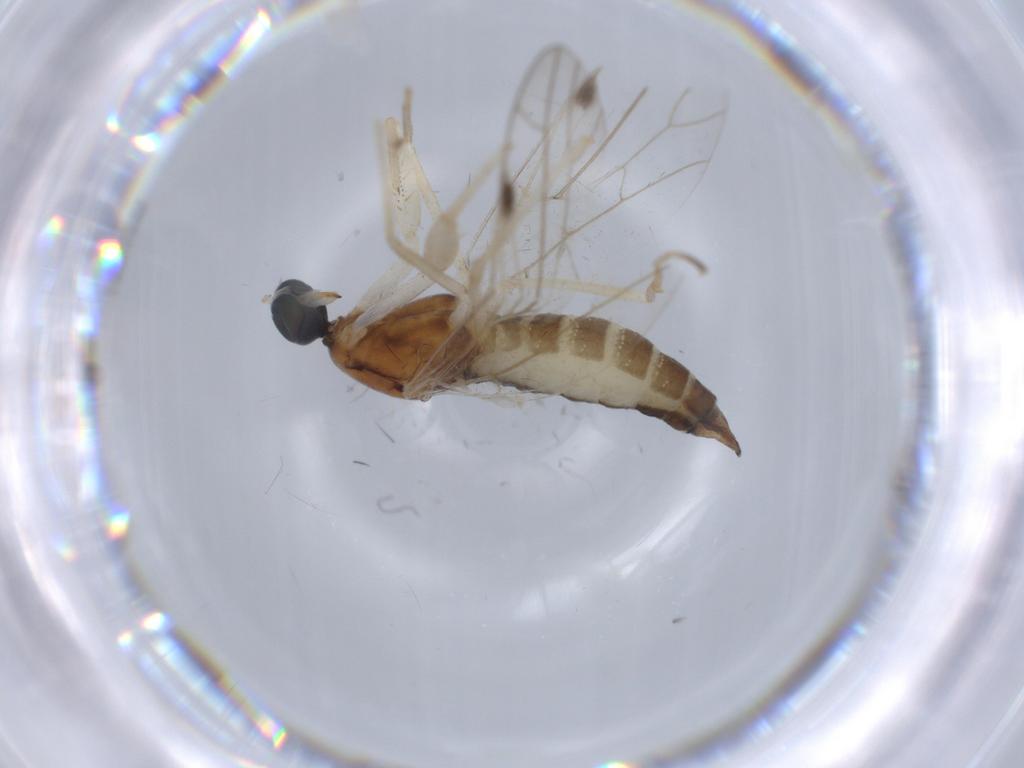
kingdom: Animalia
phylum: Arthropoda
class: Insecta
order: Diptera
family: Empididae
